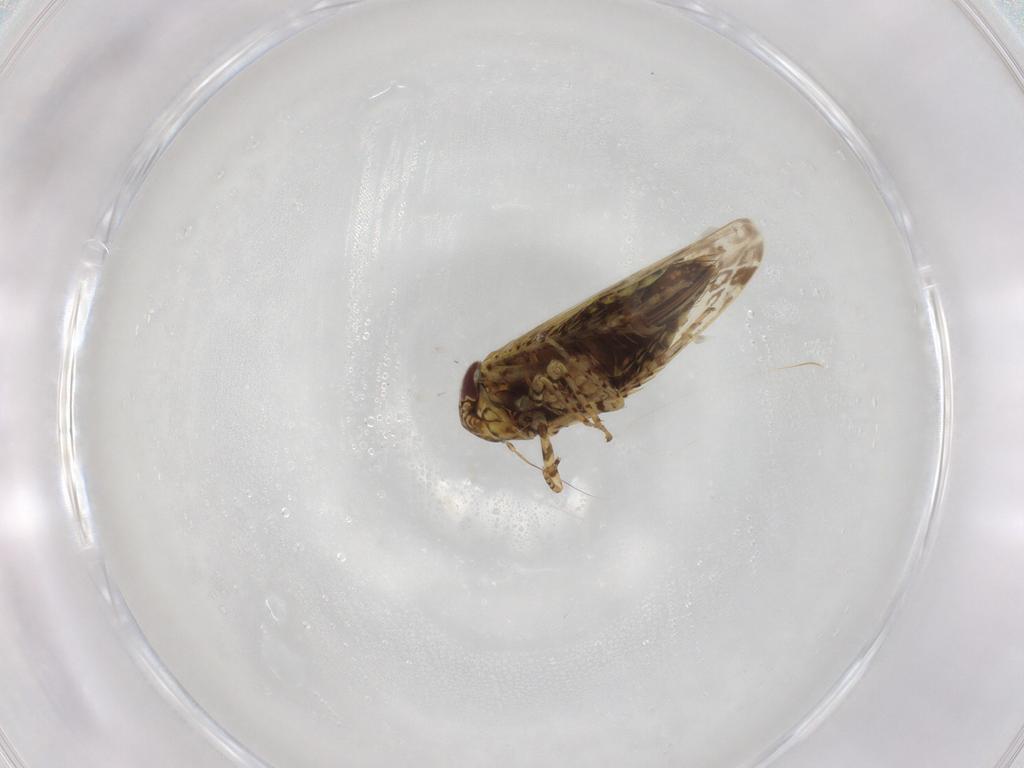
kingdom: Animalia
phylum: Arthropoda
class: Insecta
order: Hemiptera
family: Cicadellidae
